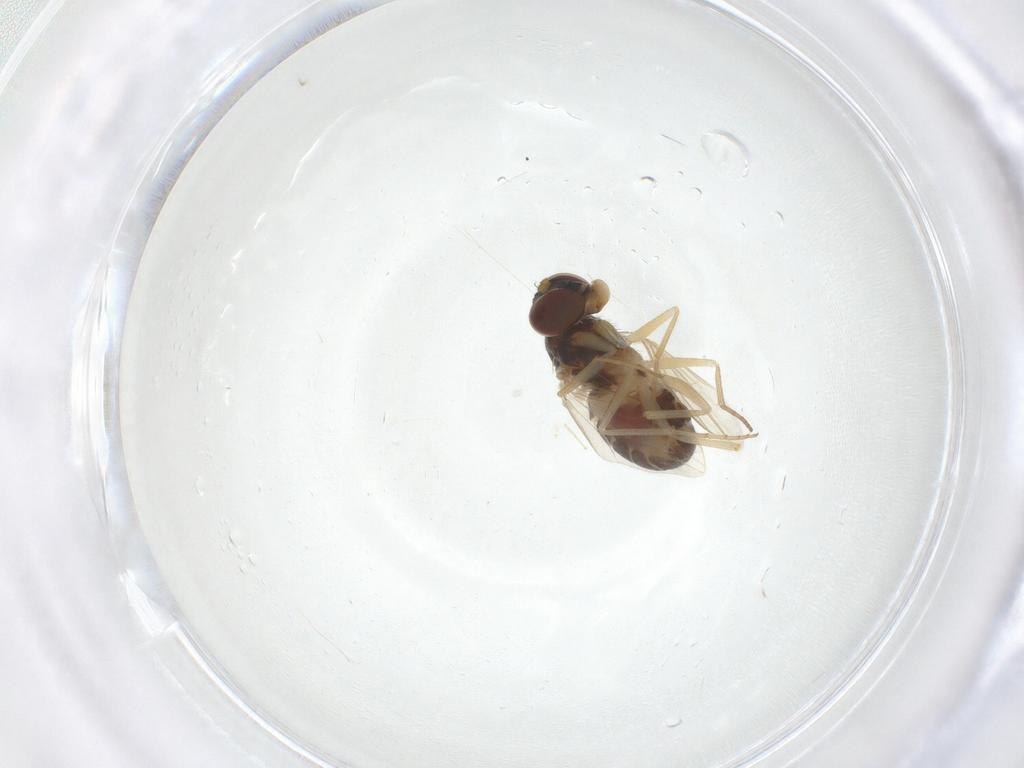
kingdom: Animalia
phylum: Arthropoda
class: Insecta
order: Diptera
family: Dolichopodidae
